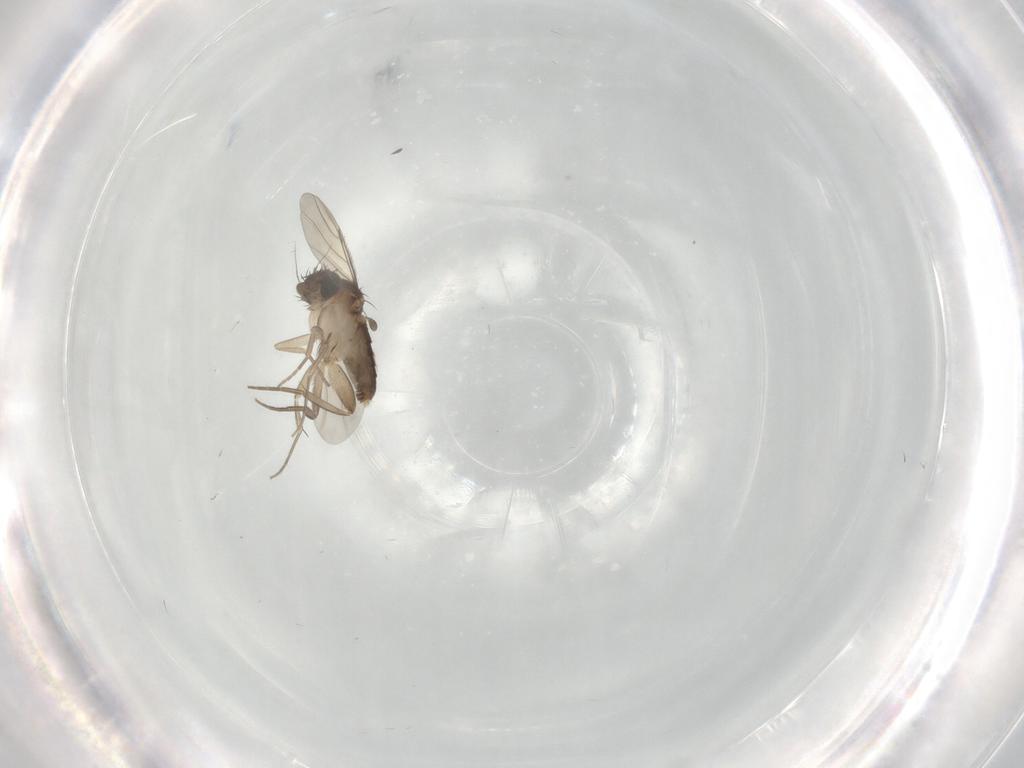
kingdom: Animalia
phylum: Arthropoda
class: Insecta
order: Diptera
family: Phoridae
